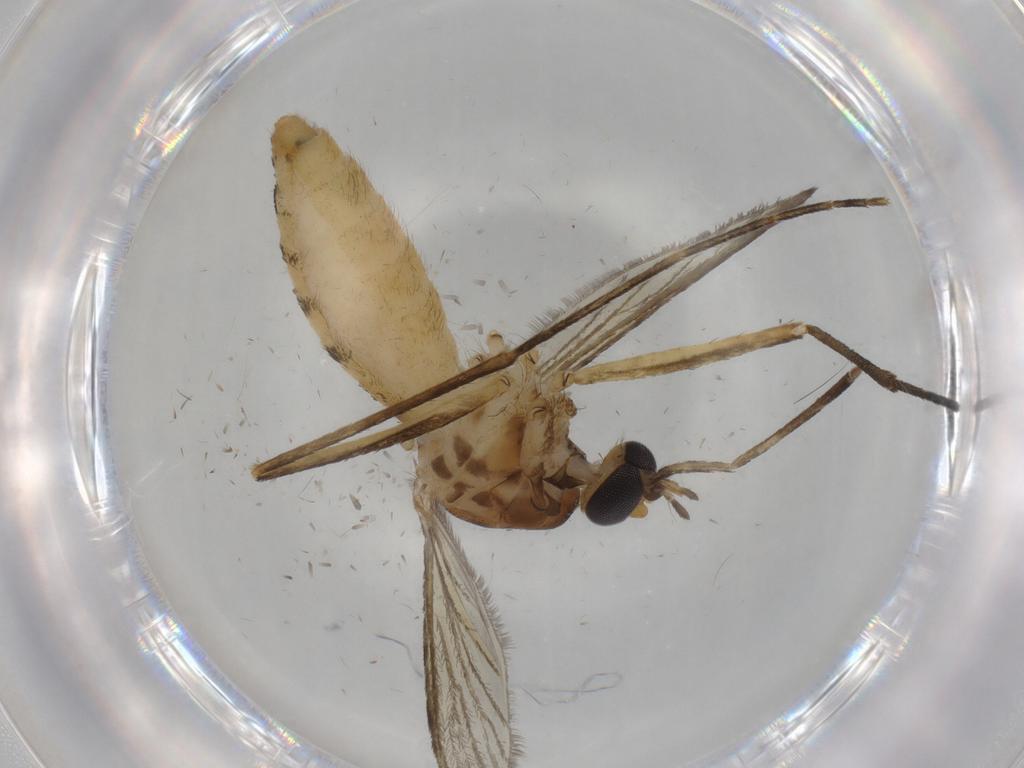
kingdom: Animalia
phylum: Arthropoda
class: Insecta
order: Diptera
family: Culicidae
